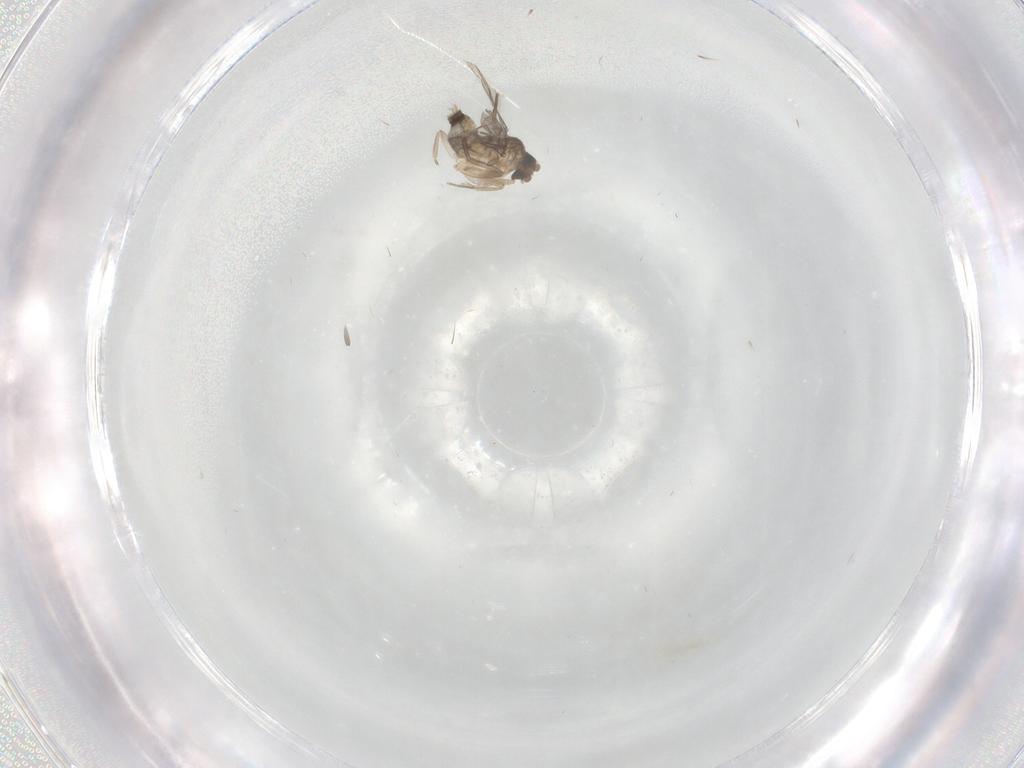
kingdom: Animalia
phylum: Arthropoda
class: Insecta
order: Diptera
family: Phoridae
